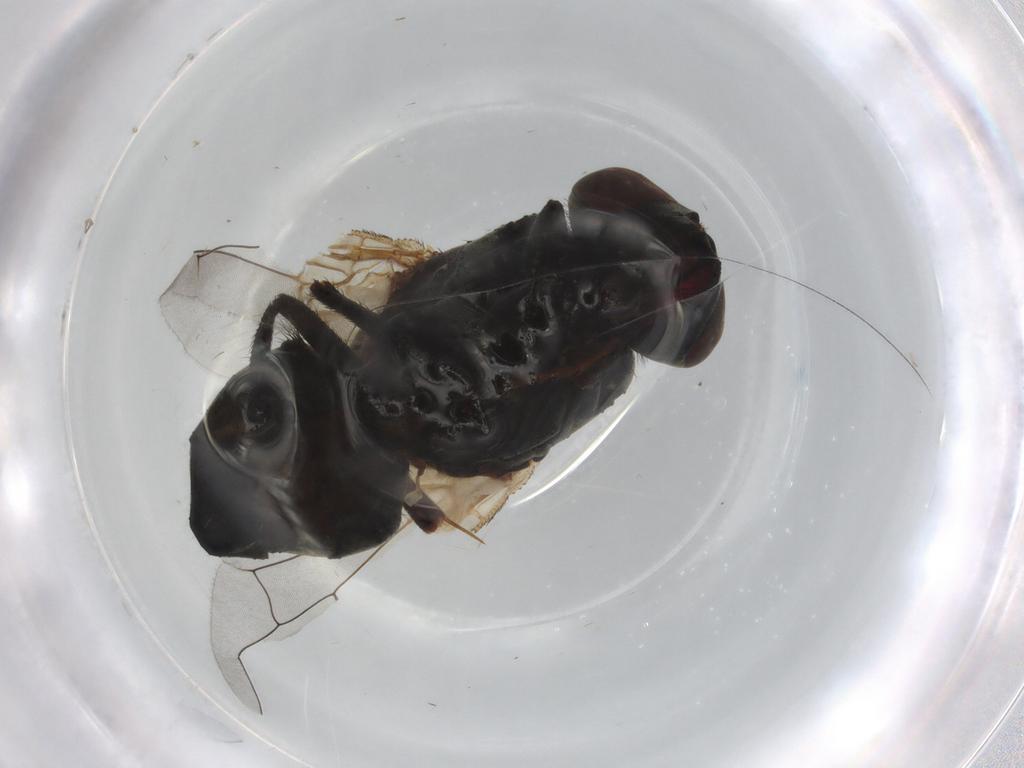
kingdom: Animalia
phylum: Arthropoda
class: Insecta
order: Diptera
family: Muscidae
